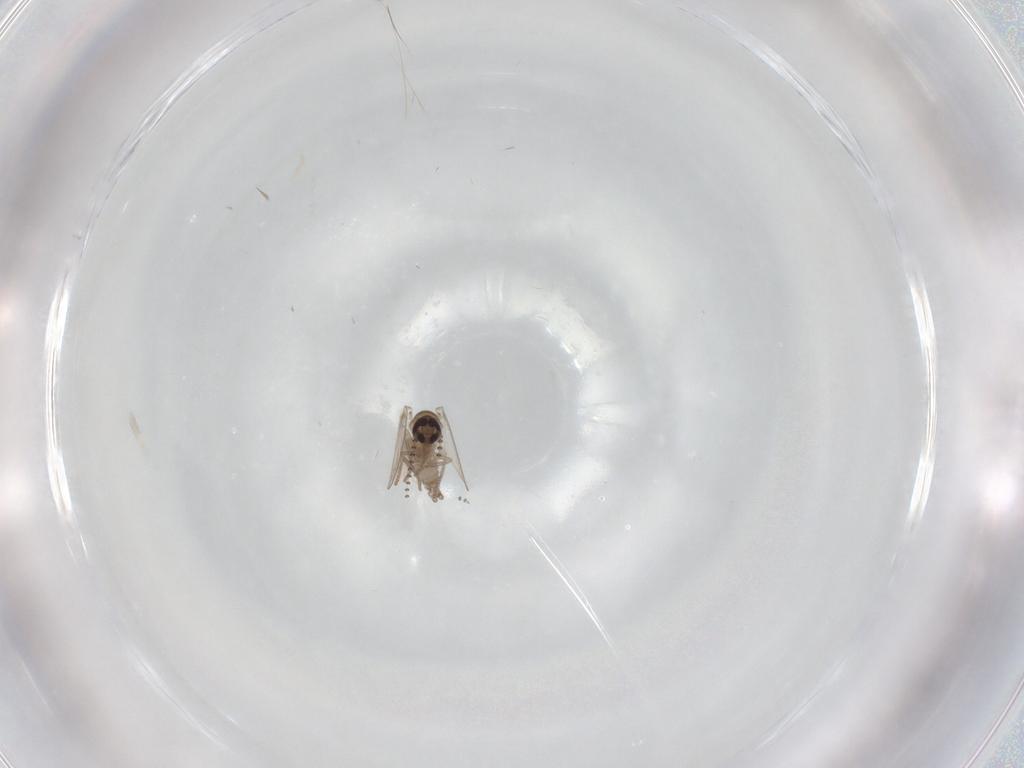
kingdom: Animalia
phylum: Arthropoda
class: Insecta
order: Diptera
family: Psychodidae
